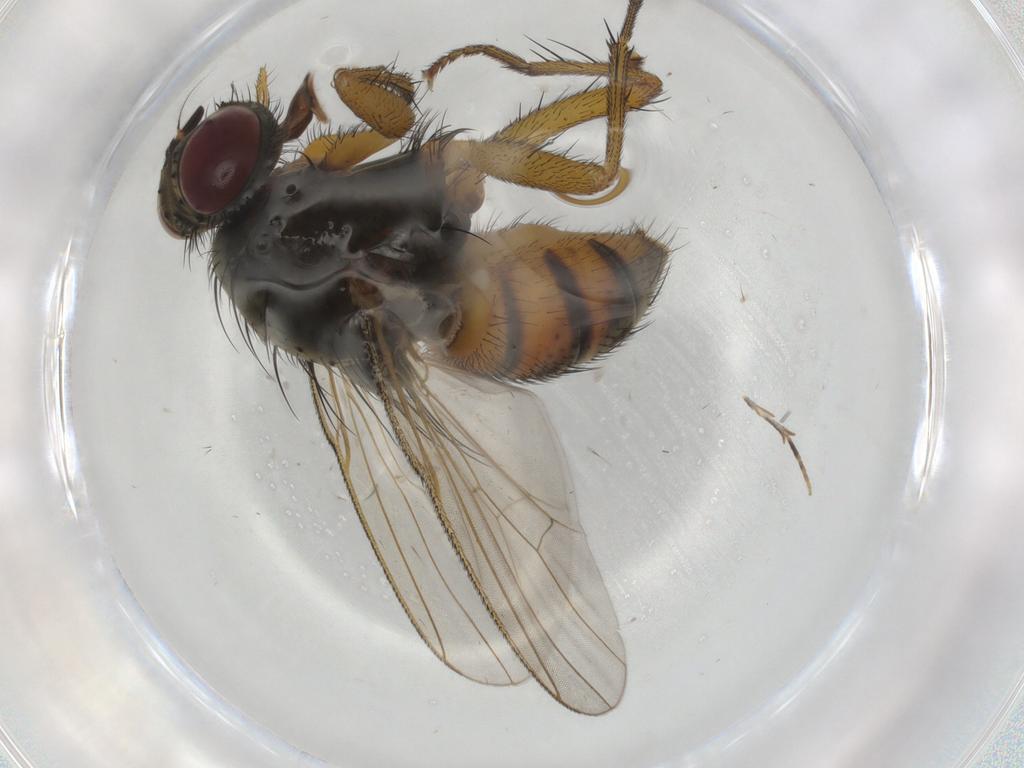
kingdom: Animalia
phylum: Arthropoda
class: Insecta
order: Diptera
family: Muscidae
